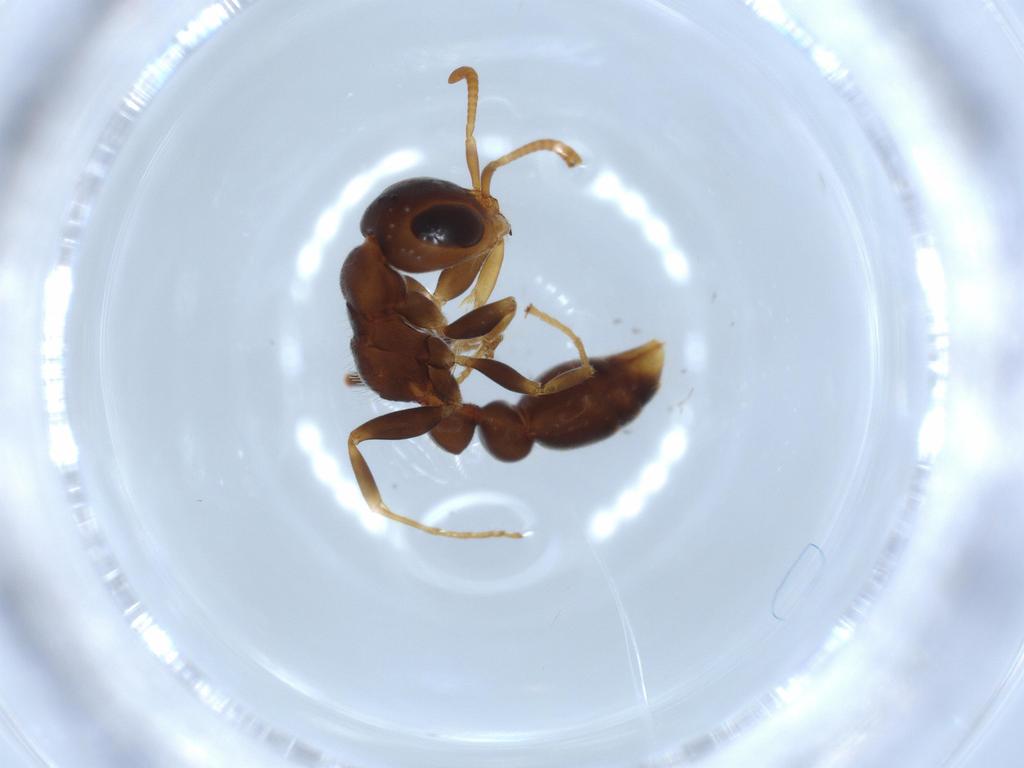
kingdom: Animalia
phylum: Arthropoda
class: Insecta
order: Hymenoptera
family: Formicidae
